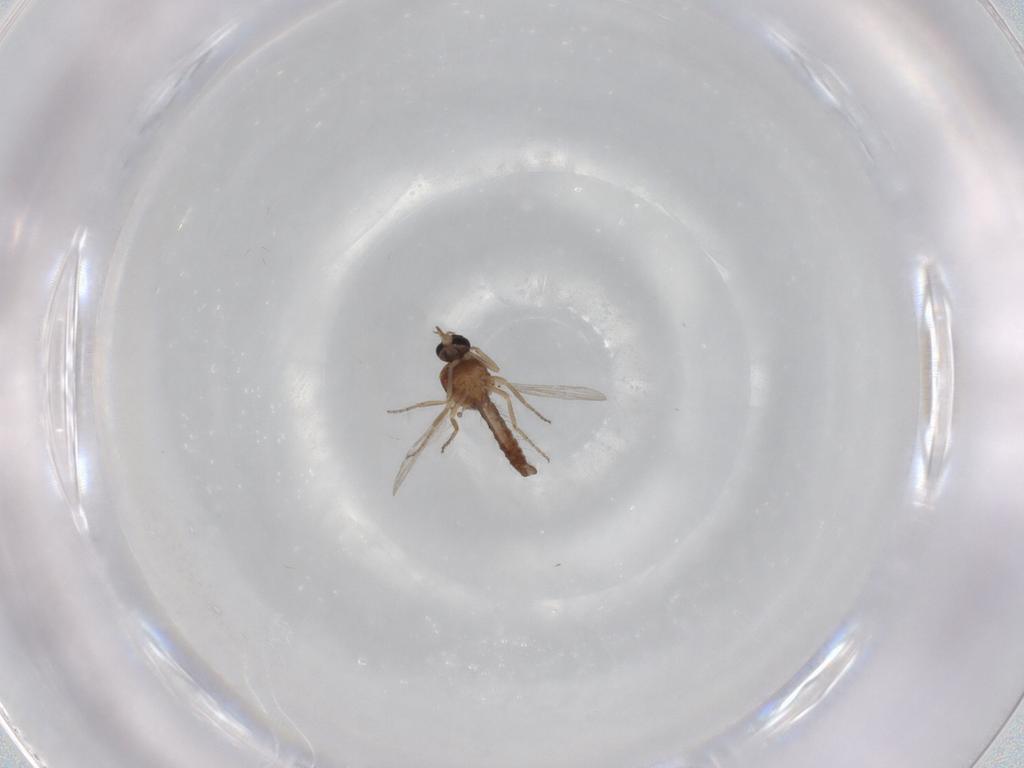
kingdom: Animalia
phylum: Arthropoda
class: Insecta
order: Diptera
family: Ceratopogonidae
